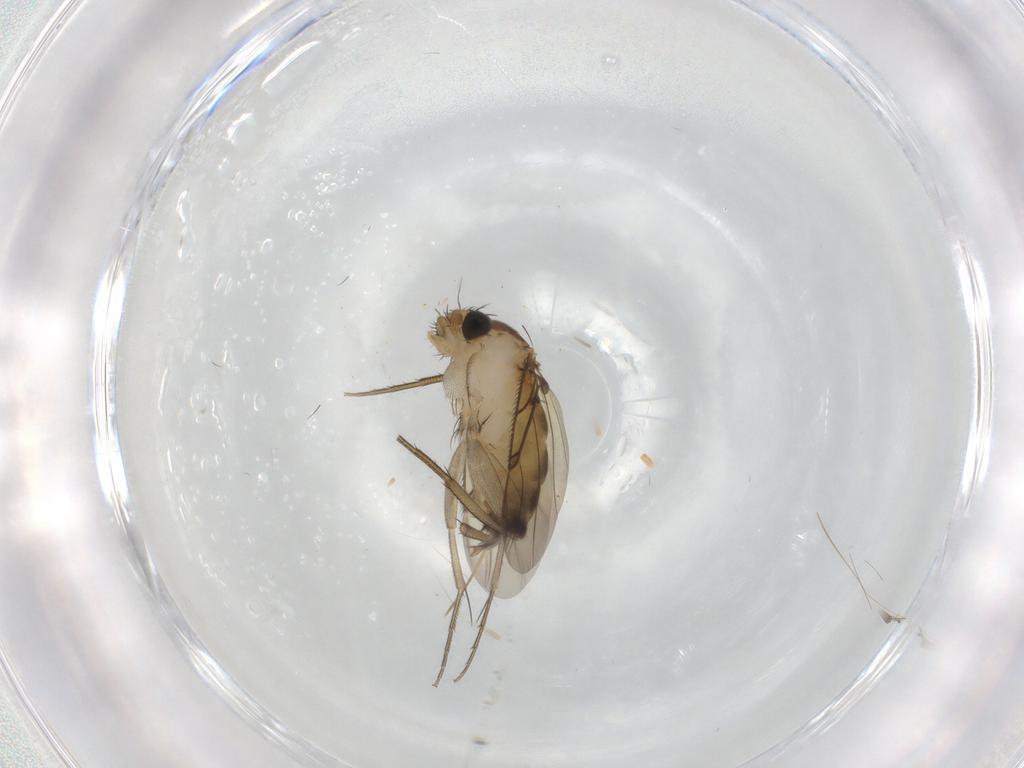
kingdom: Animalia
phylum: Arthropoda
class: Insecta
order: Diptera
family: Phoridae
